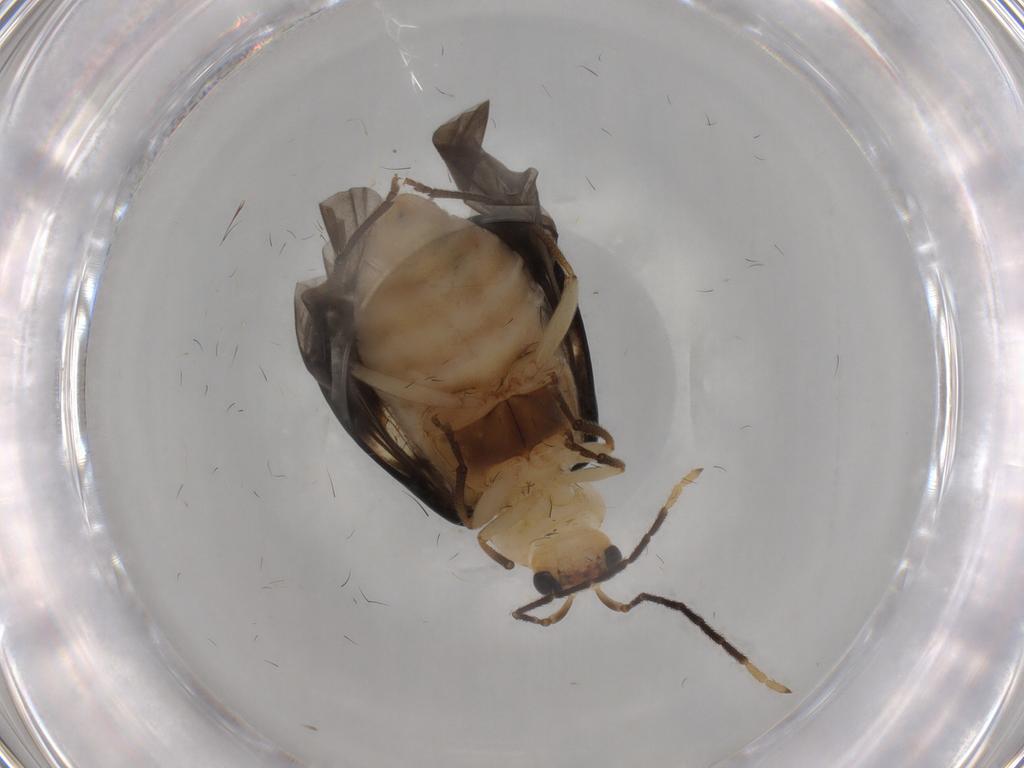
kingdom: Animalia
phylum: Arthropoda
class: Insecta
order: Coleoptera
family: Chrysomelidae
